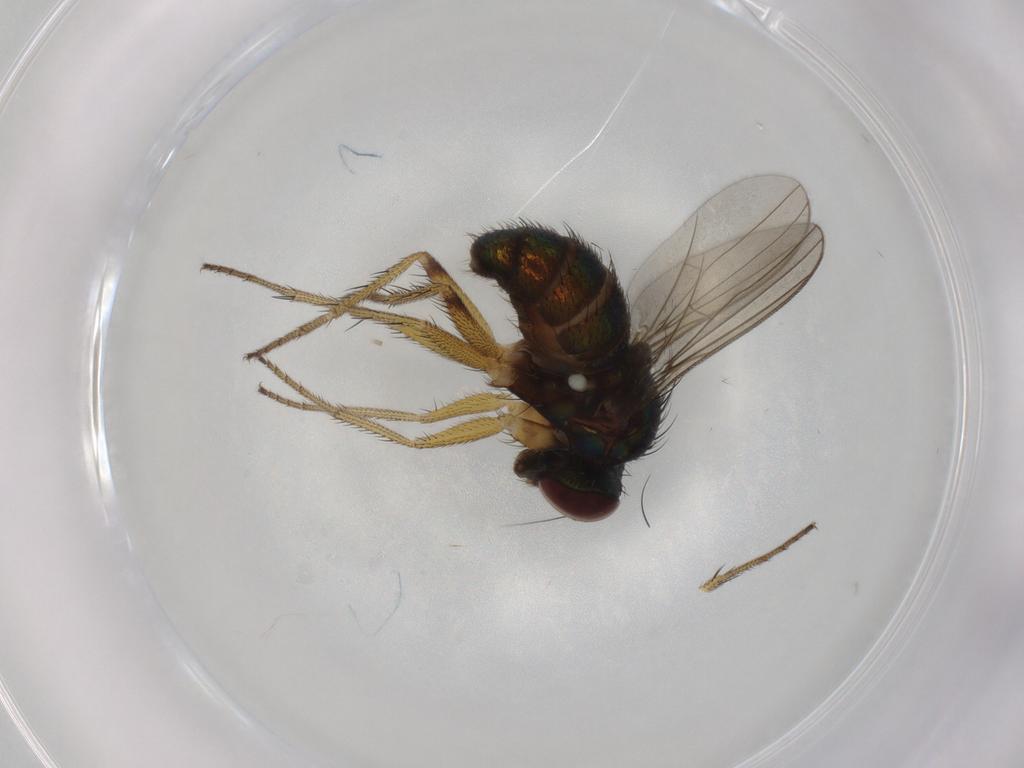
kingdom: Animalia
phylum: Arthropoda
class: Insecta
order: Diptera
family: Dolichopodidae
